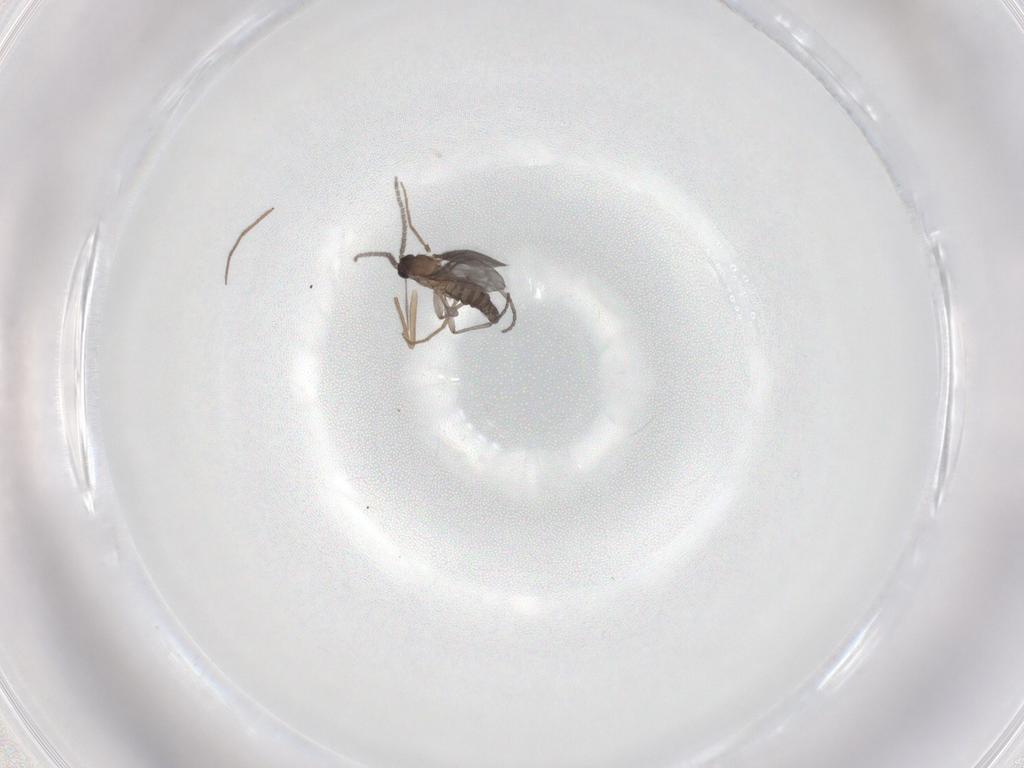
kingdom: Animalia
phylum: Arthropoda
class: Insecta
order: Diptera
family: Sciaridae
